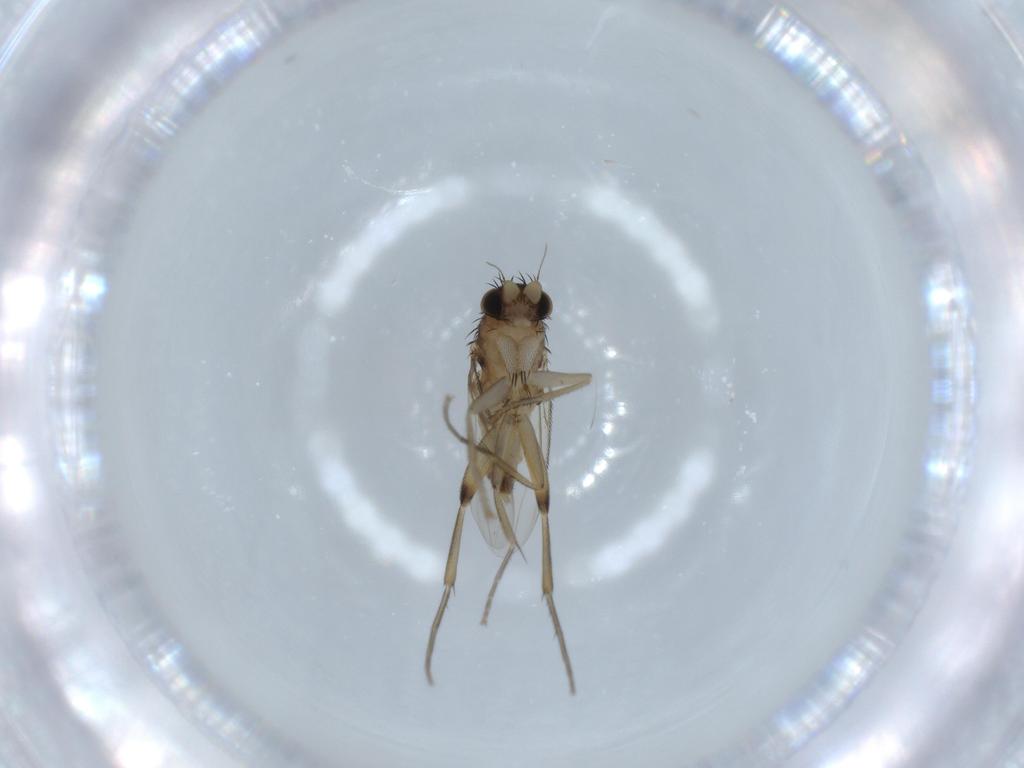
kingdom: Animalia
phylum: Arthropoda
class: Insecta
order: Diptera
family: Phoridae
